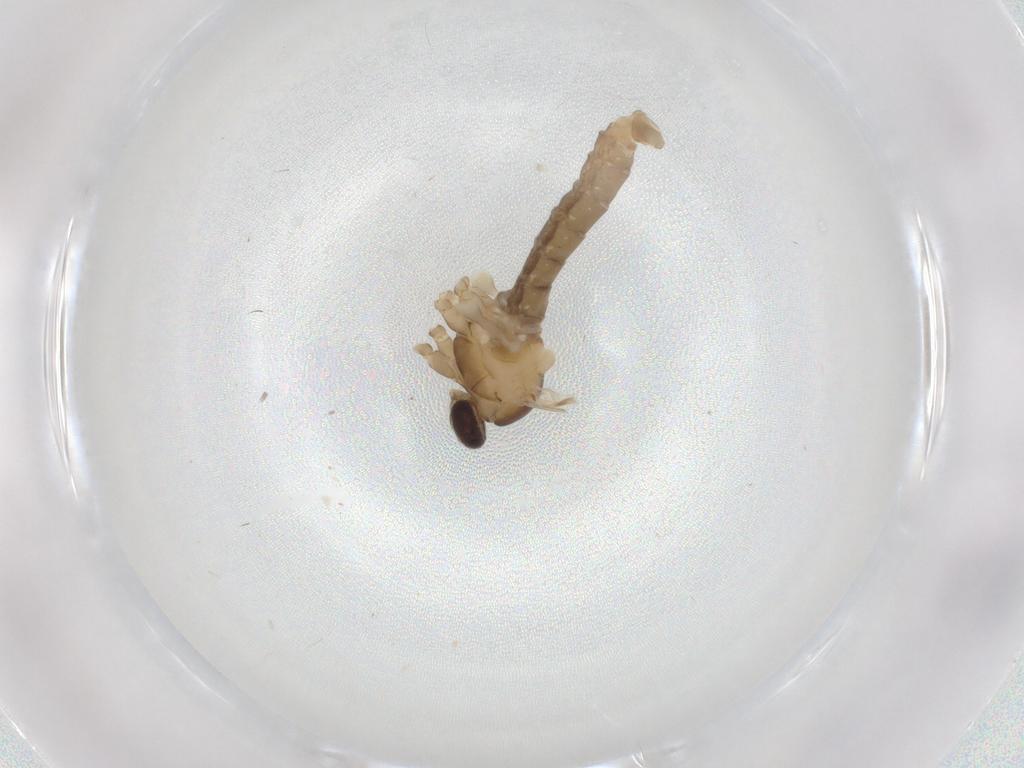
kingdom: Animalia
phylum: Arthropoda
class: Insecta
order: Diptera
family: Cecidomyiidae
